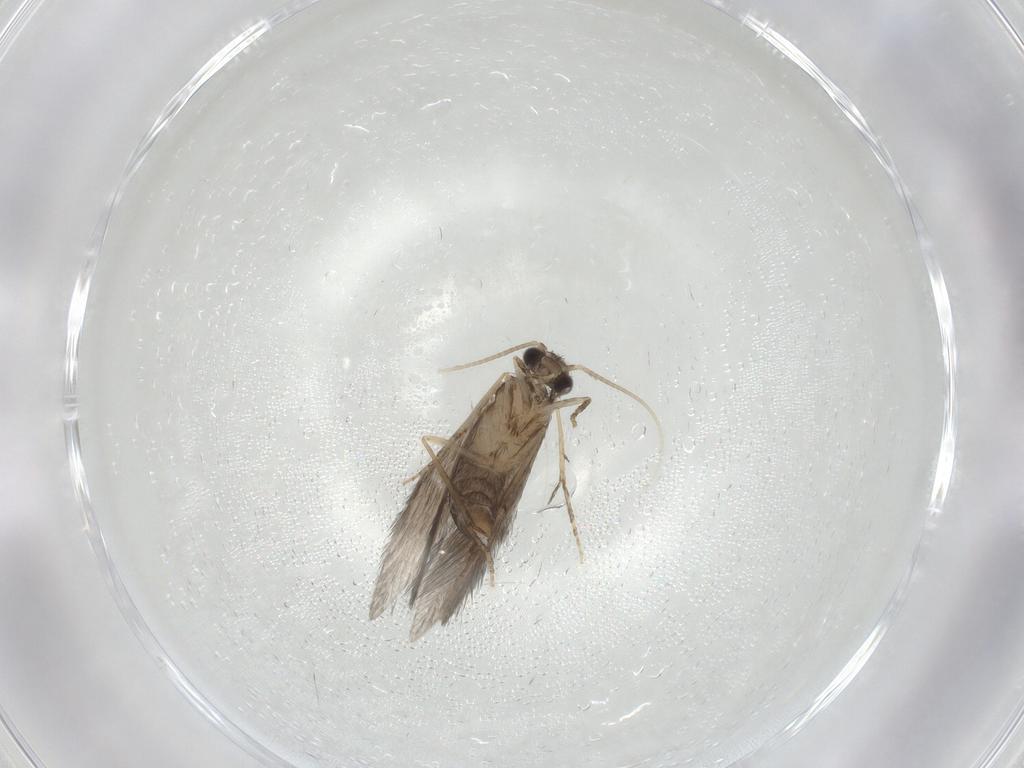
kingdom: Animalia
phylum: Arthropoda
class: Insecta
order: Trichoptera
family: Hydroptilidae
